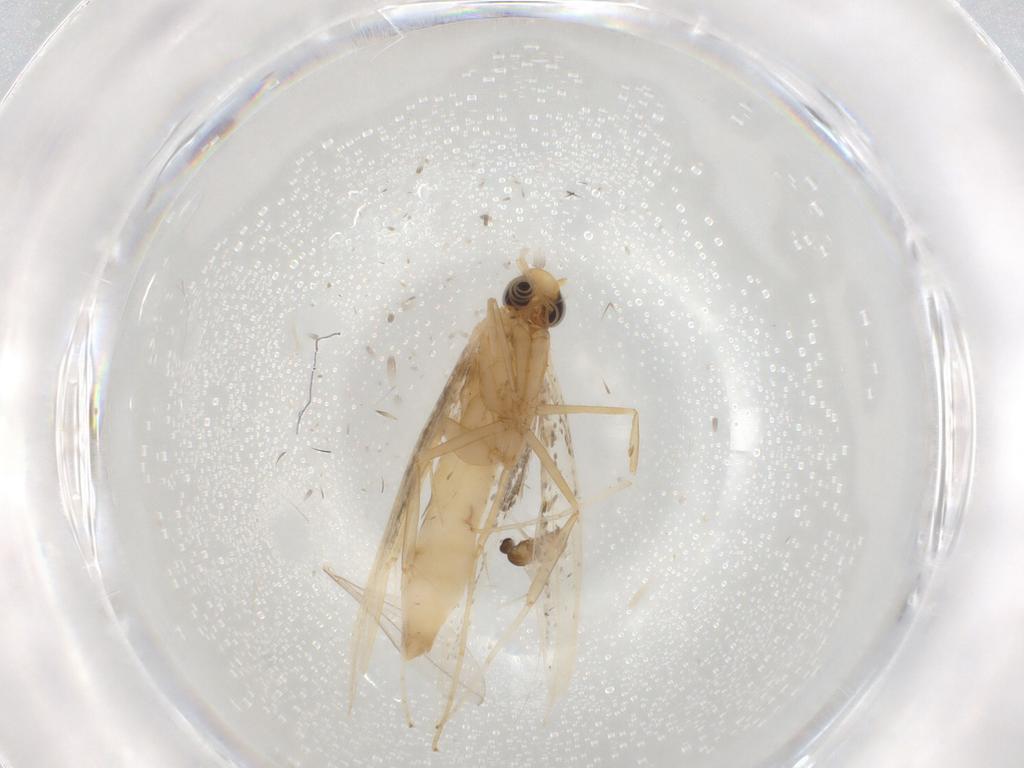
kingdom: Animalia
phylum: Arthropoda
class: Insecta
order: Lepidoptera
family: Gracillariidae
